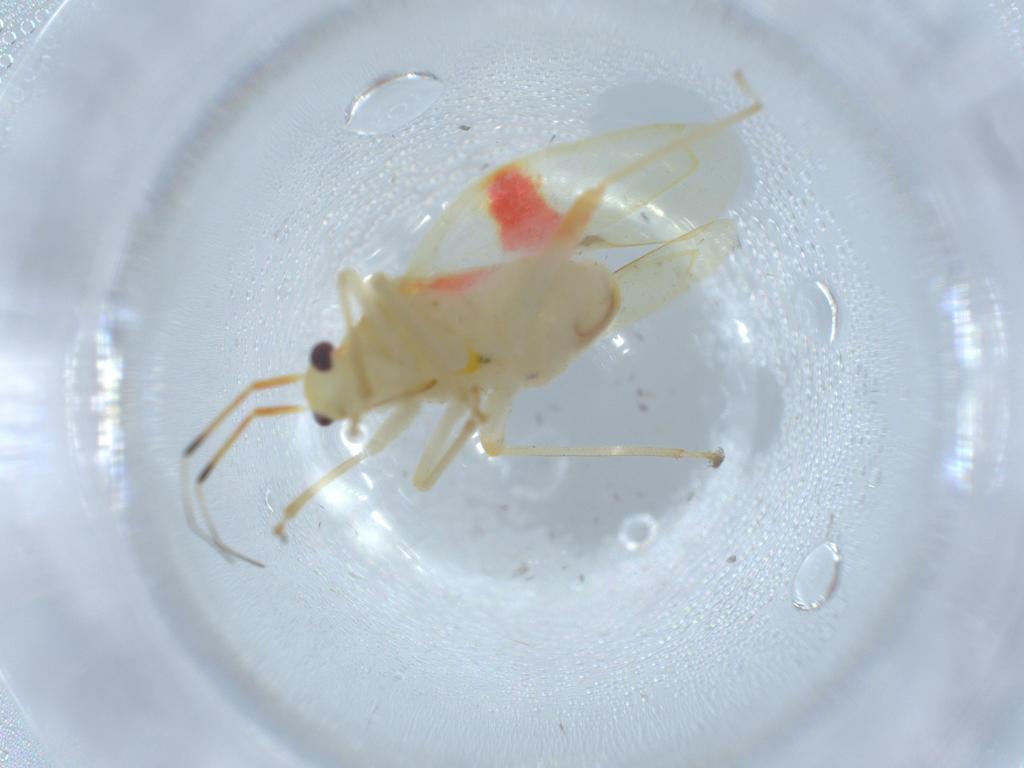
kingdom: Animalia
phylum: Arthropoda
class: Insecta
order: Hemiptera
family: Miridae
